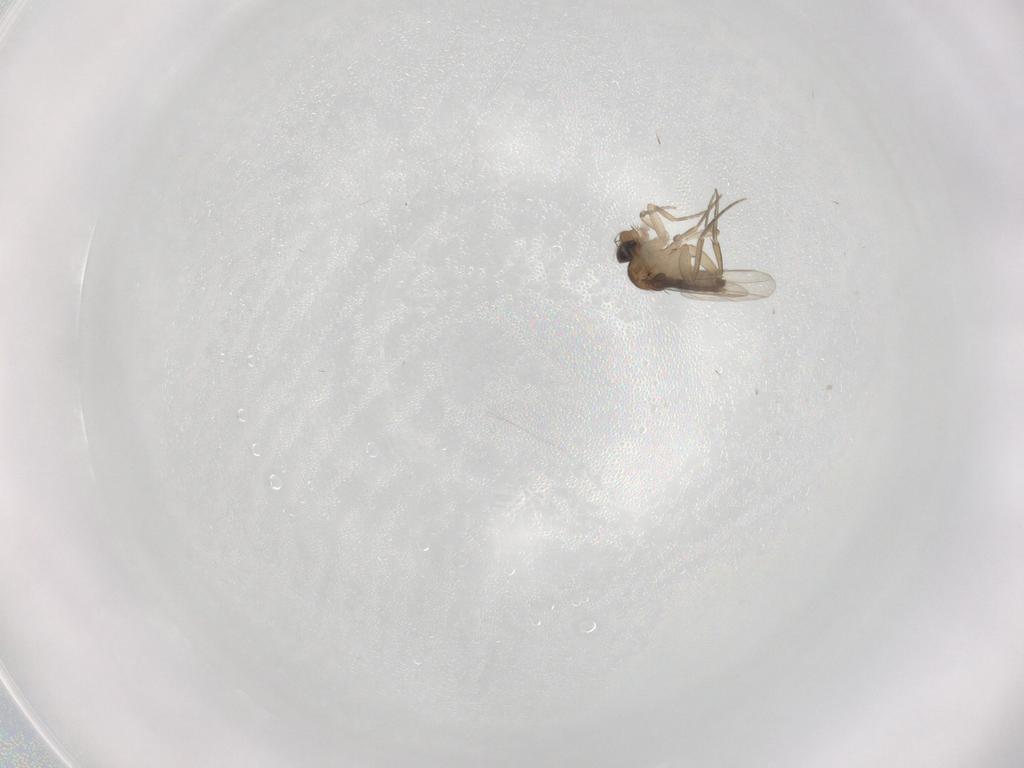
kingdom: Animalia
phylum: Arthropoda
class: Insecta
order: Diptera
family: Phoridae
